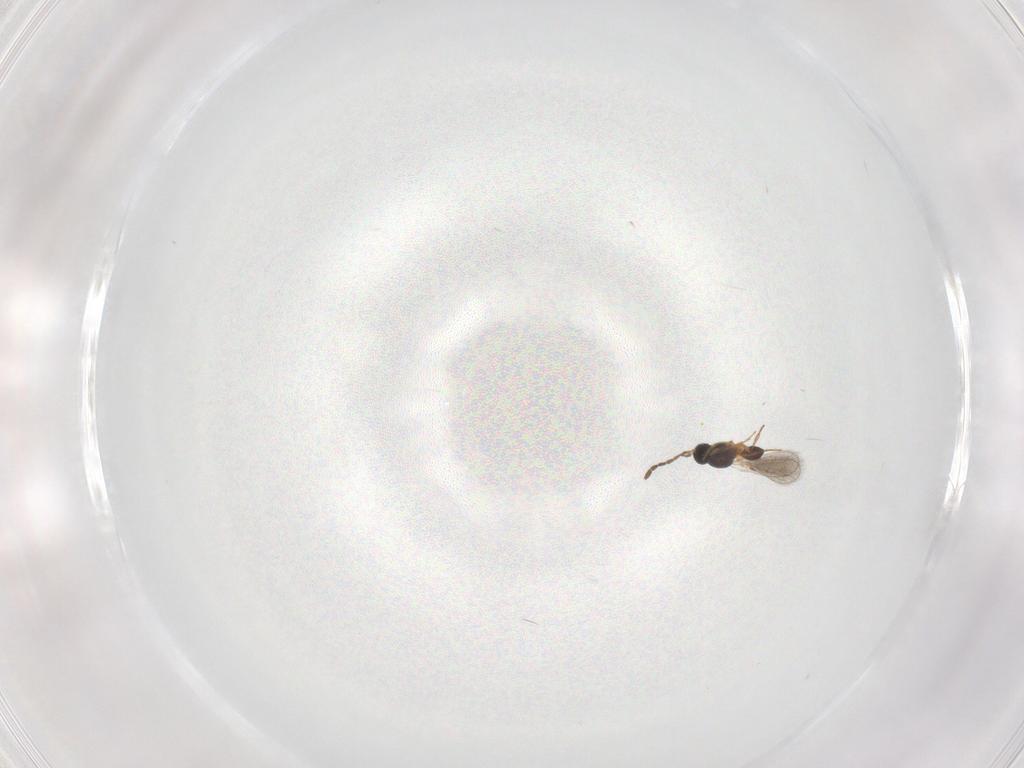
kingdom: Animalia
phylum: Arthropoda
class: Insecta
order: Hymenoptera
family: Platygastridae
